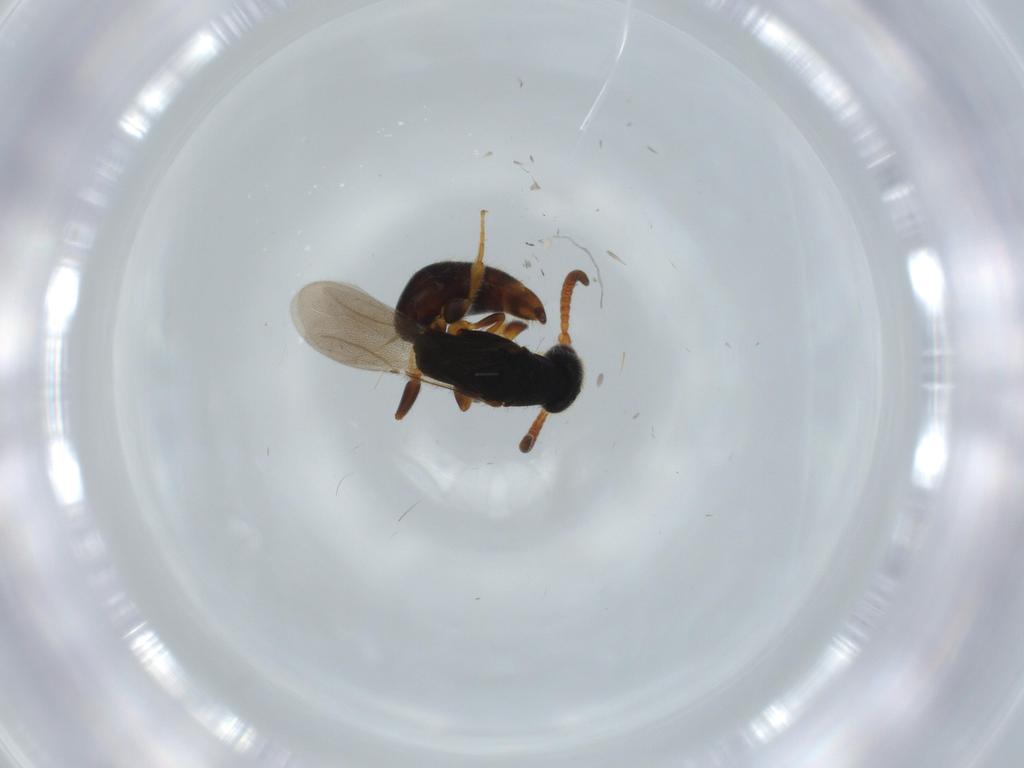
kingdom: Animalia
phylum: Arthropoda
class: Insecta
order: Hymenoptera
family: Bethylidae
